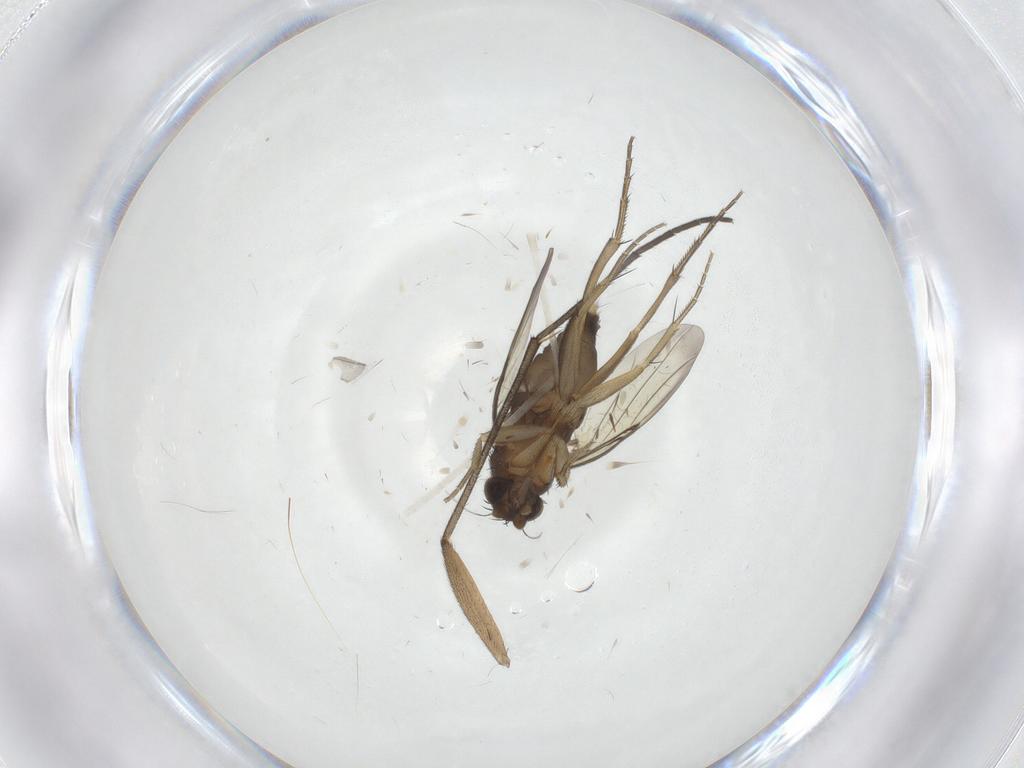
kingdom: Animalia
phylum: Arthropoda
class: Insecta
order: Diptera
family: Phoridae
